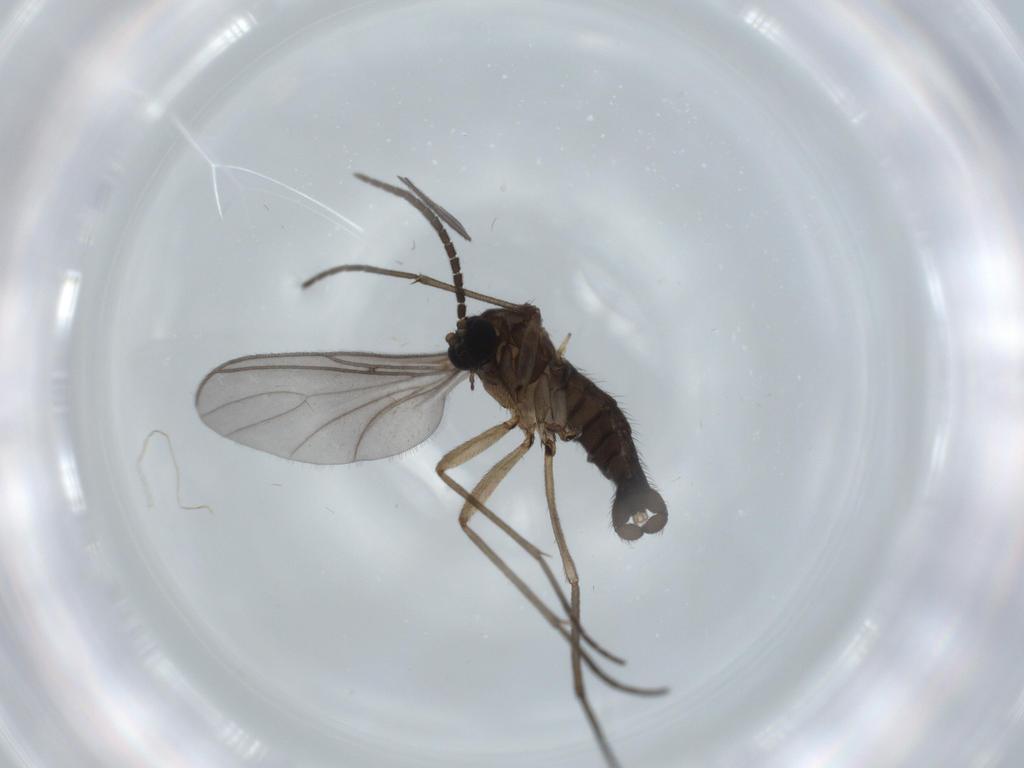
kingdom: Animalia
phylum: Arthropoda
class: Insecta
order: Diptera
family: Sciaridae
